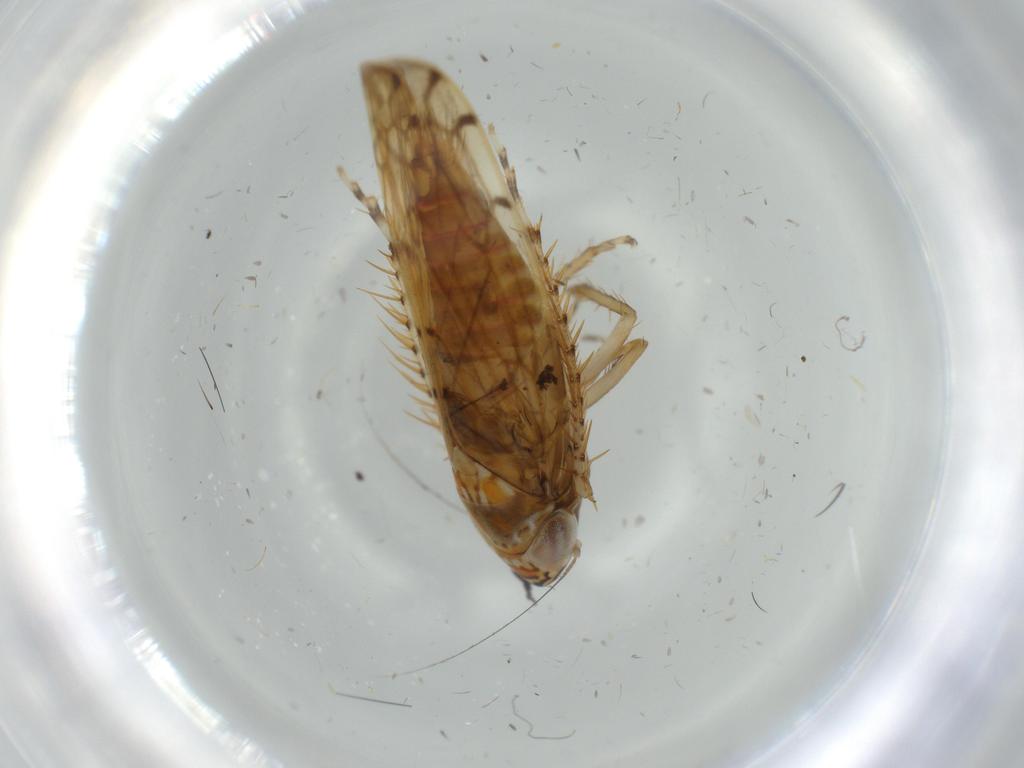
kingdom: Animalia
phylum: Arthropoda
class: Insecta
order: Hemiptera
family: Cicadellidae
